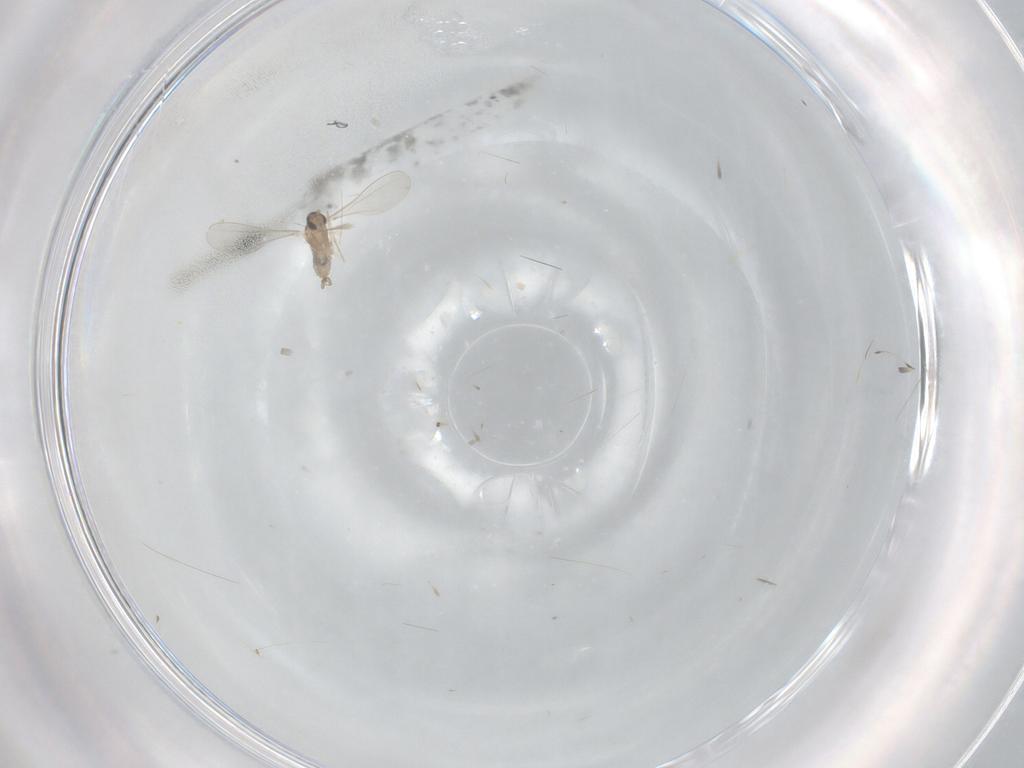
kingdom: Animalia
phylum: Arthropoda
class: Insecta
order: Diptera
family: Cecidomyiidae
